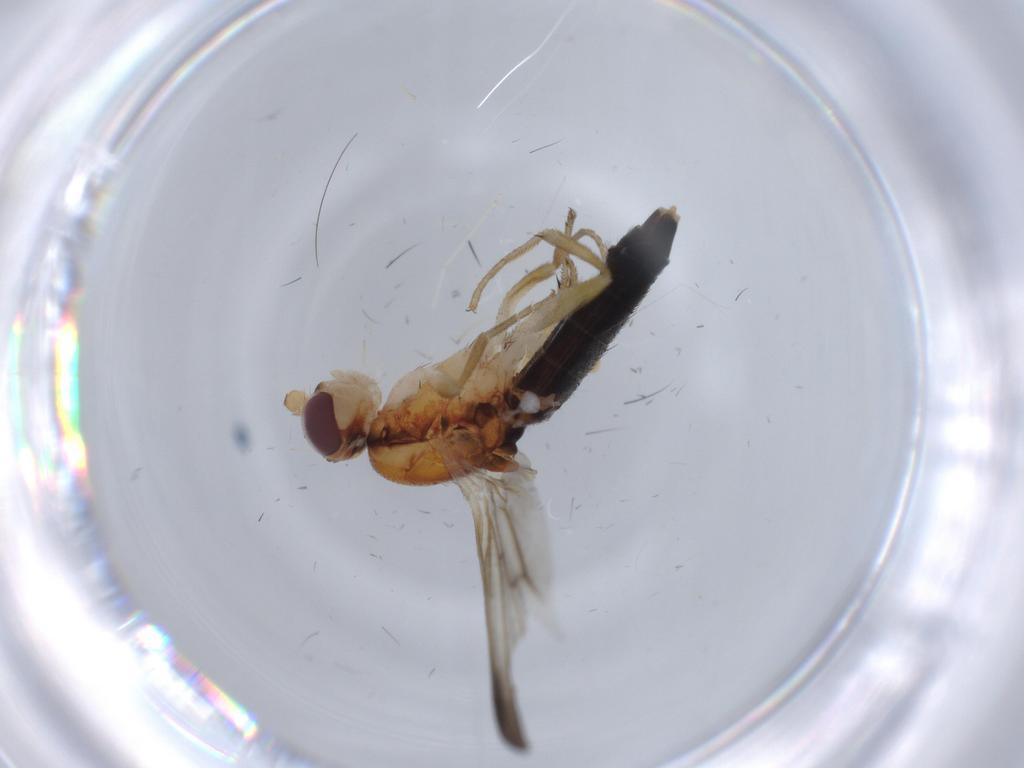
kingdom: Animalia
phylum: Arthropoda
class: Insecta
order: Diptera
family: Clusiidae
